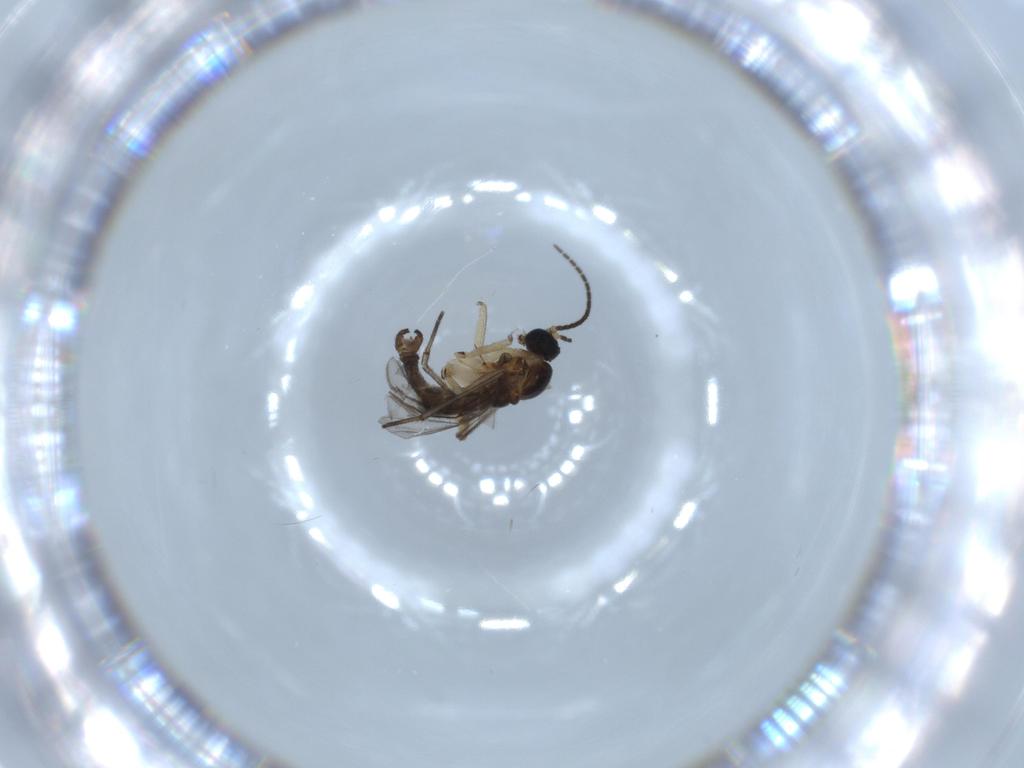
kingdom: Animalia
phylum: Arthropoda
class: Insecta
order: Diptera
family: Sciaridae
